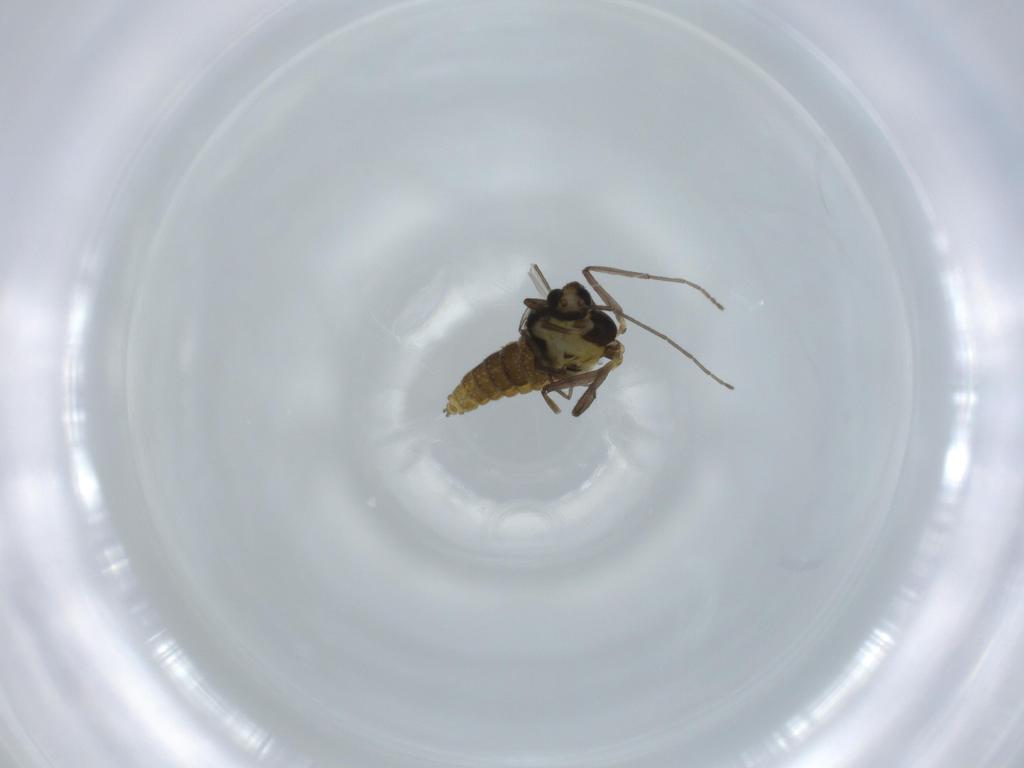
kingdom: Animalia
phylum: Arthropoda
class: Insecta
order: Diptera
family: Chironomidae
